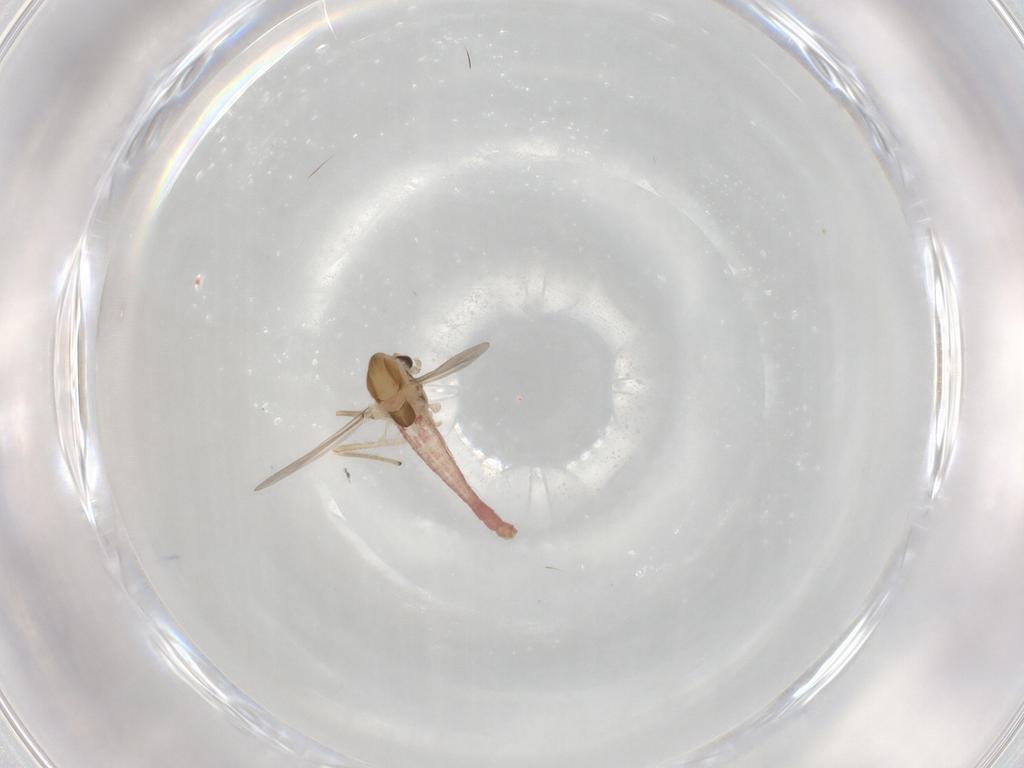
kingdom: Animalia
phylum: Arthropoda
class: Insecta
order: Diptera
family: Chironomidae
